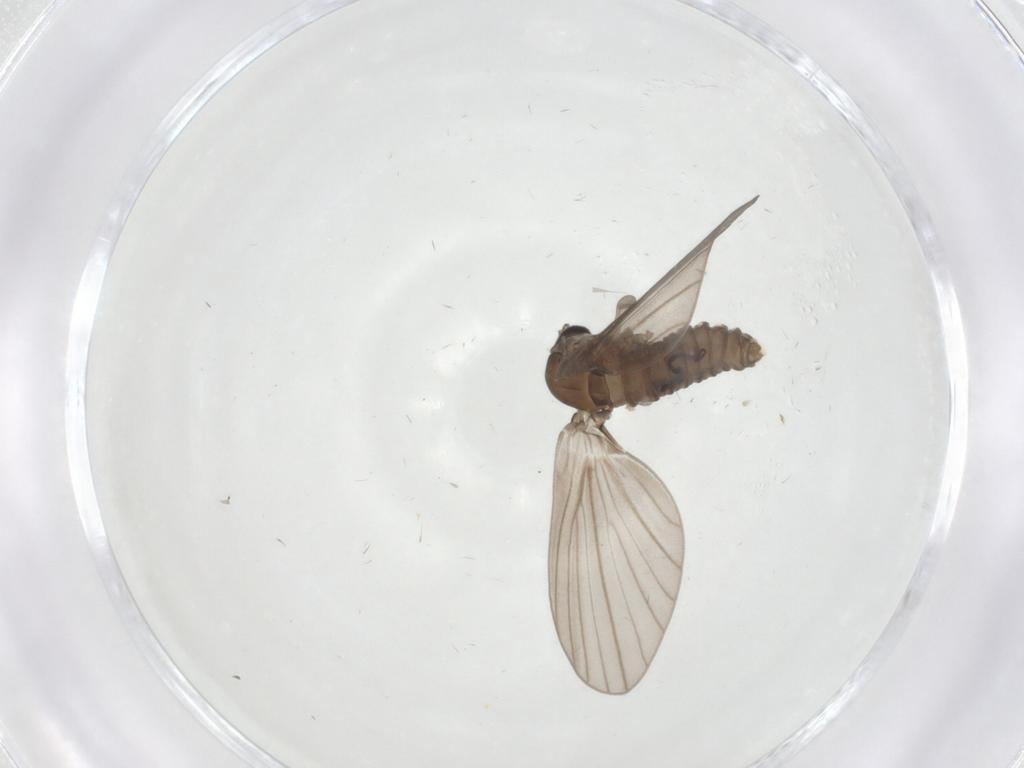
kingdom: Animalia
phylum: Arthropoda
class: Insecta
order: Diptera
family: Psychodidae
